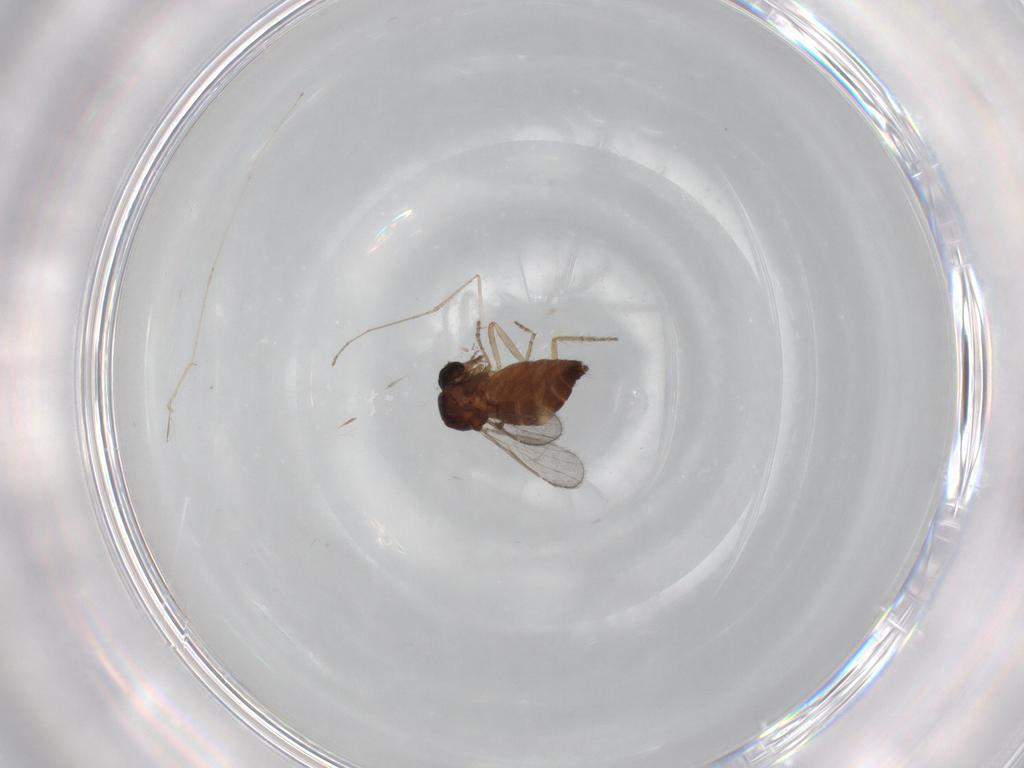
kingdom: Animalia
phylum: Arthropoda
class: Insecta
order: Diptera
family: Ceratopogonidae
